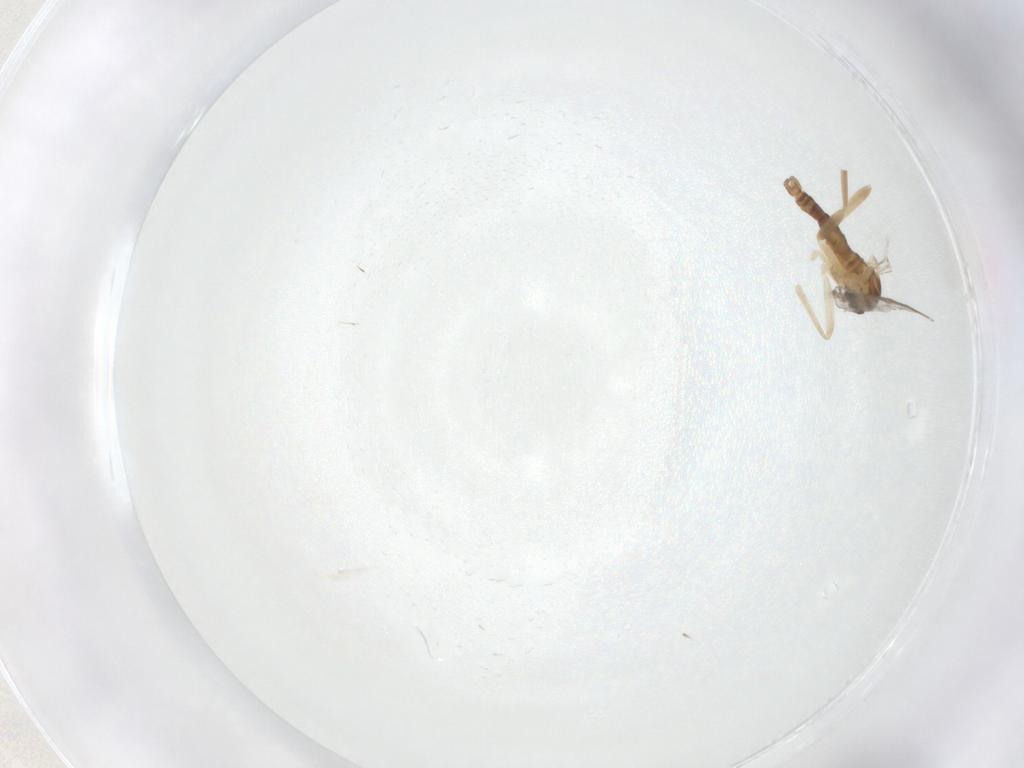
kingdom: Animalia
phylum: Arthropoda
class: Insecta
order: Diptera
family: Cecidomyiidae
